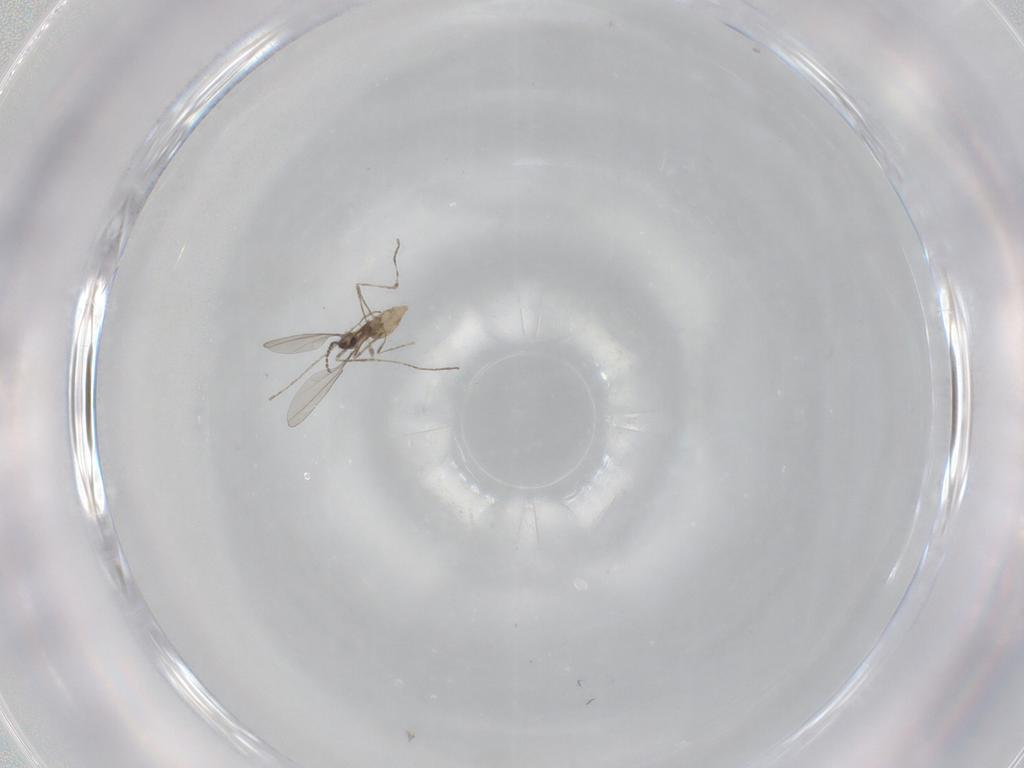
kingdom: Animalia
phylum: Arthropoda
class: Insecta
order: Diptera
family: Cecidomyiidae
